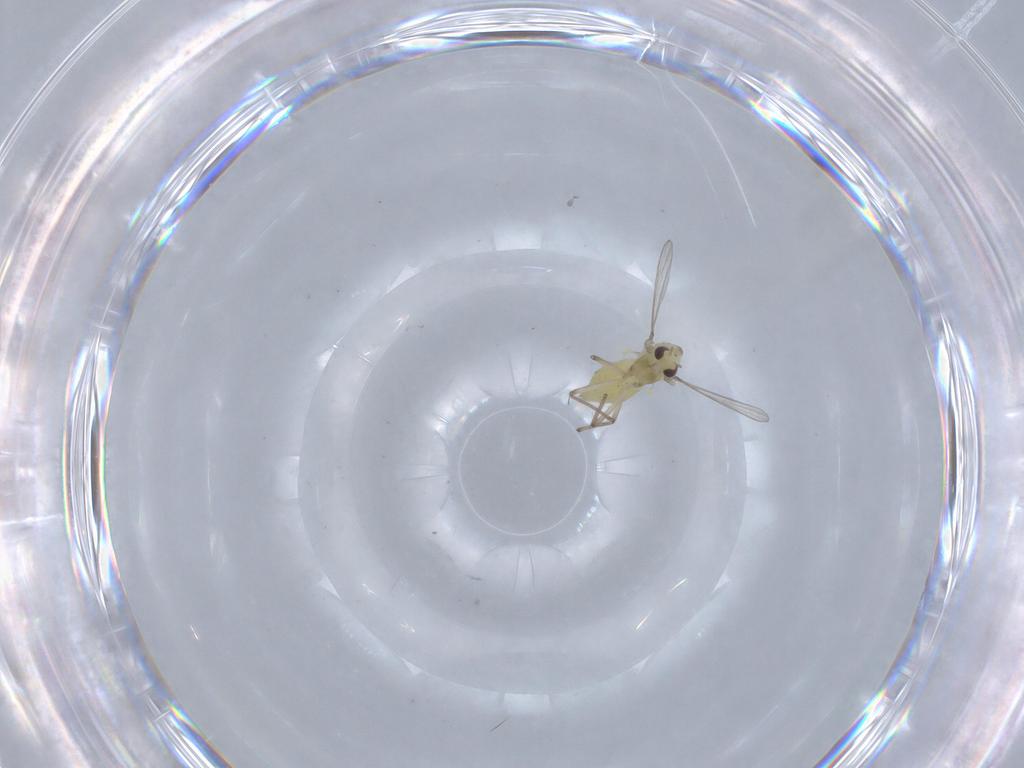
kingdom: Animalia
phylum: Arthropoda
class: Insecta
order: Diptera
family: Chironomidae
